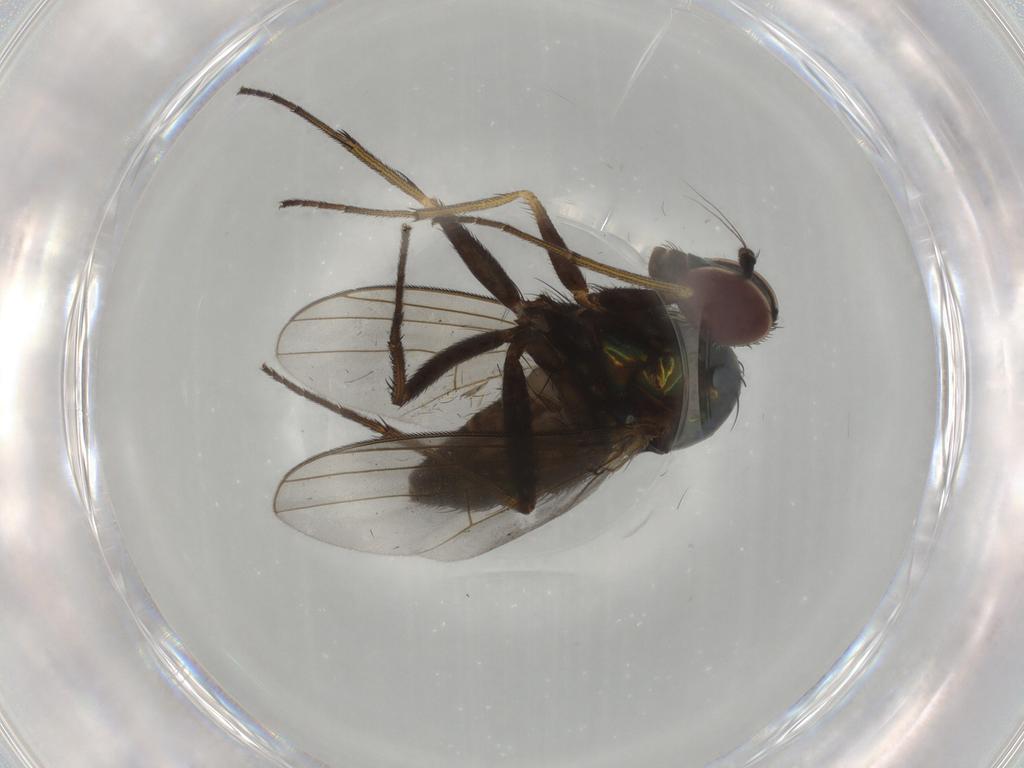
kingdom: Animalia
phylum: Arthropoda
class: Insecta
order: Diptera
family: Dolichopodidae
